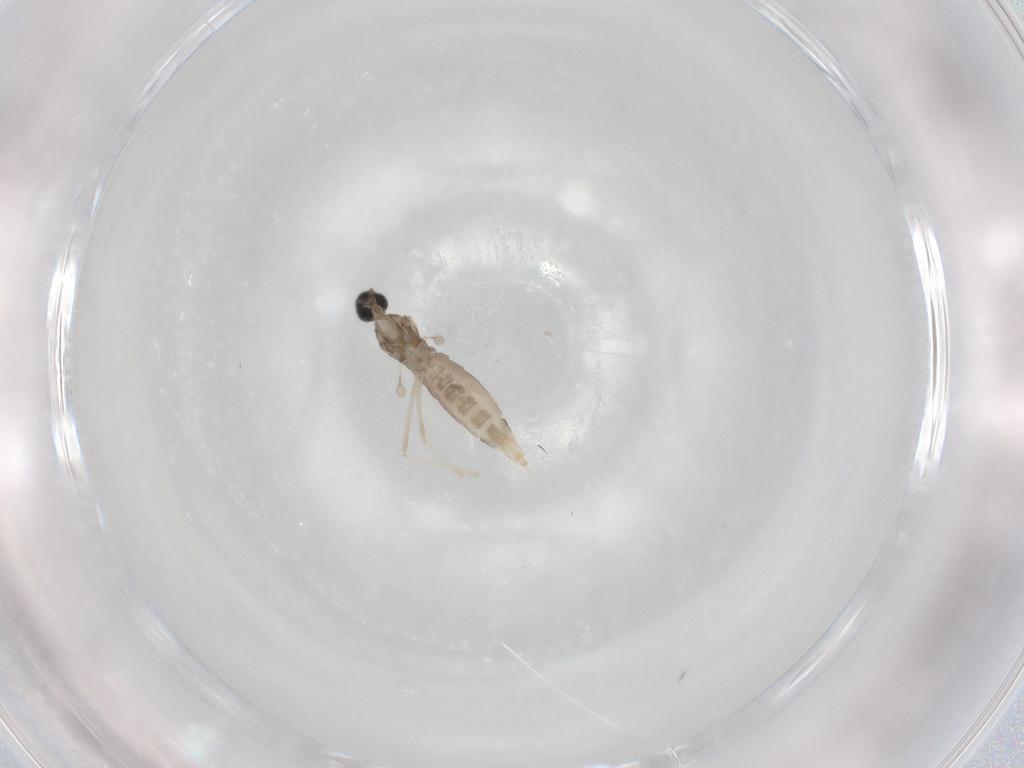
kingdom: Animalia
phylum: Arthropoda
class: Insecta
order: Diptera
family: Cecidomyiidae
